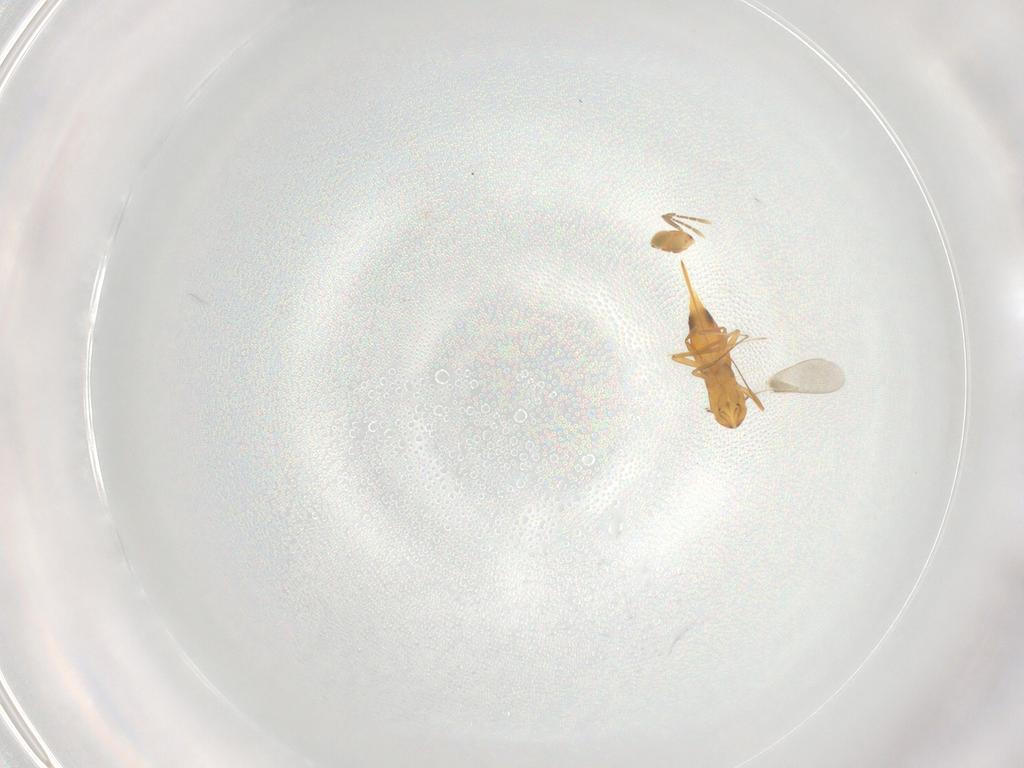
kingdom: Animalia
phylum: Arthropoda
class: Insecta
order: Hymenoptera
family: Aphelinidae
